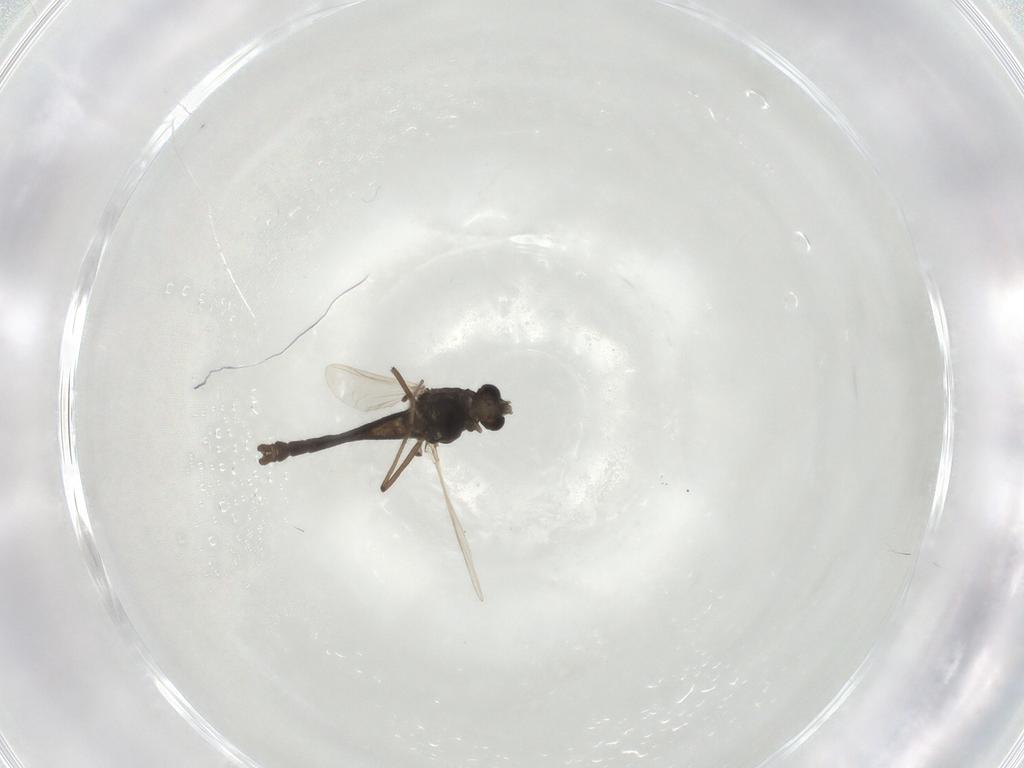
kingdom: Animalia
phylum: Arthropoda
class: Insecta
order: Diptera
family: Chironomidae
